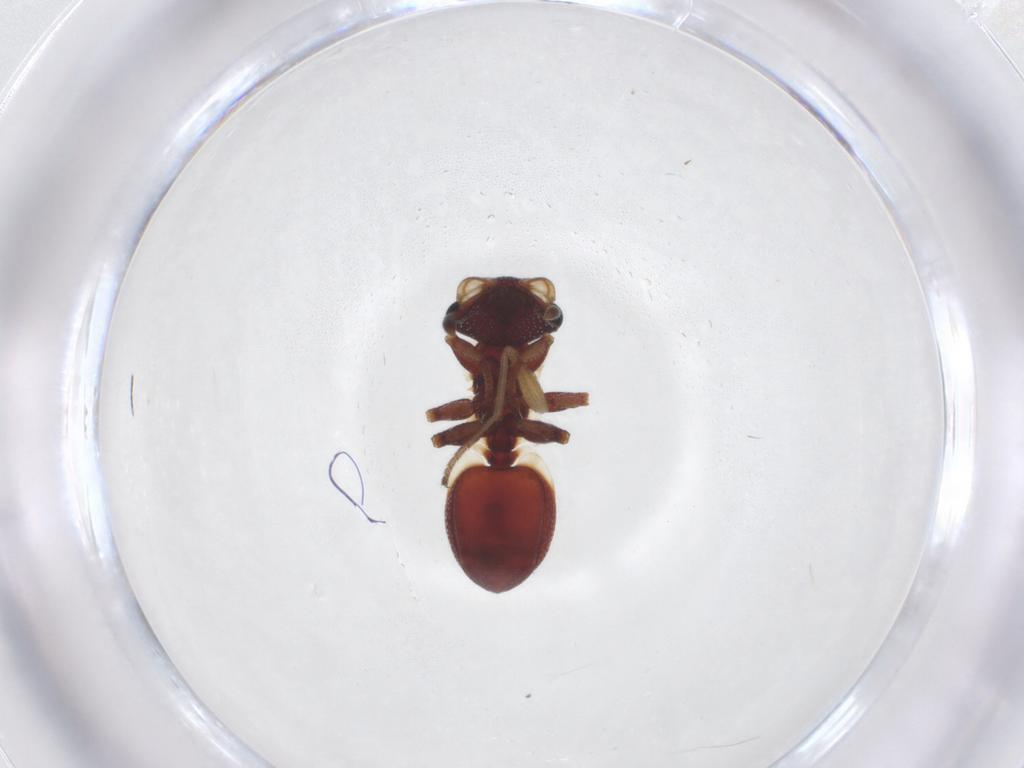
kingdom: Animalia
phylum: Arthropoda
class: Insecta
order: Hymenoptera
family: Formicidae
